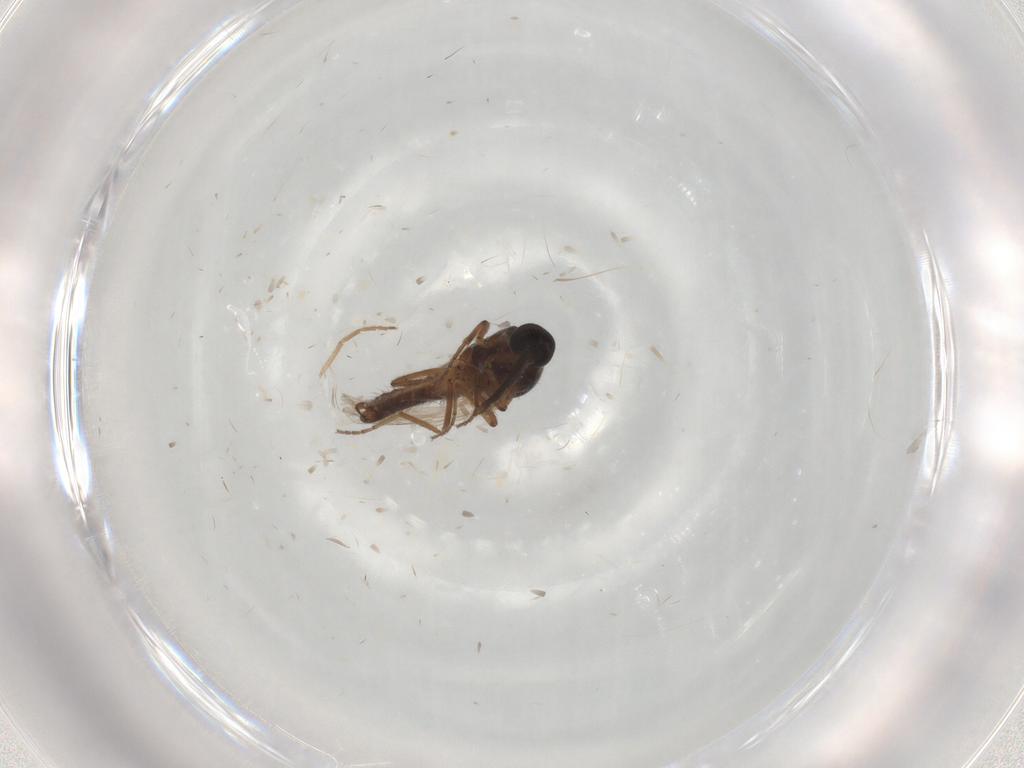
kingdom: Animalia
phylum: Arthropoda
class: Insecta
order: Diptera
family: Ceratopogonidae
